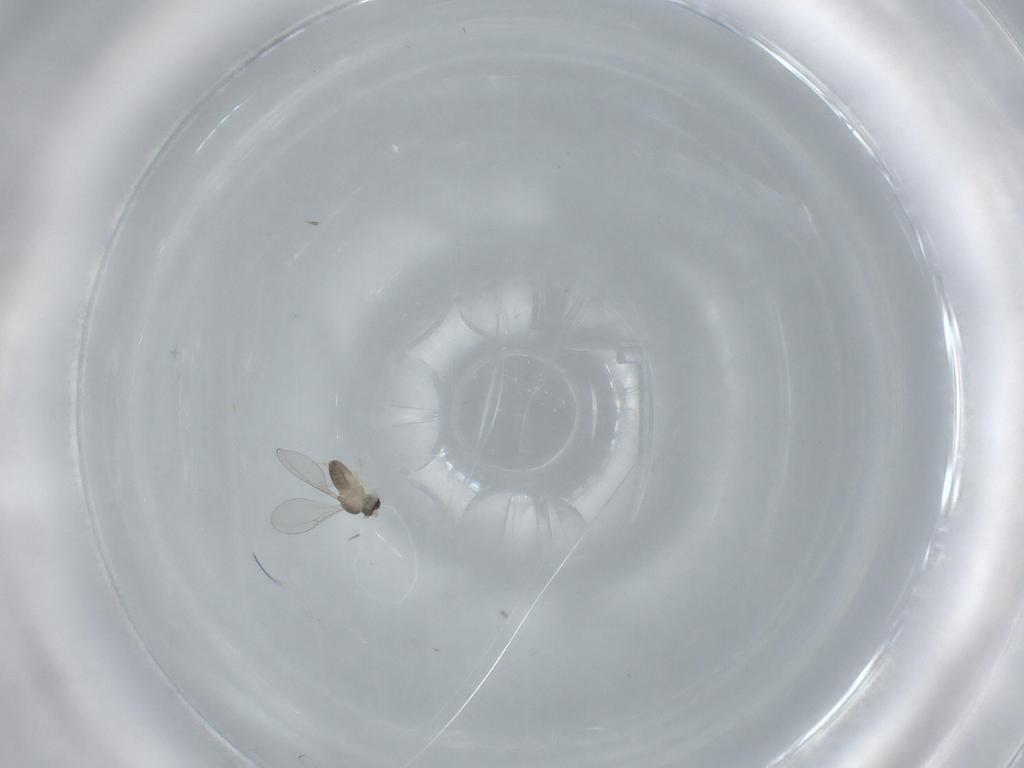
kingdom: Animalia
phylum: Arthropoda
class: Insecta
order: Diptera
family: Cecidomyiidae
